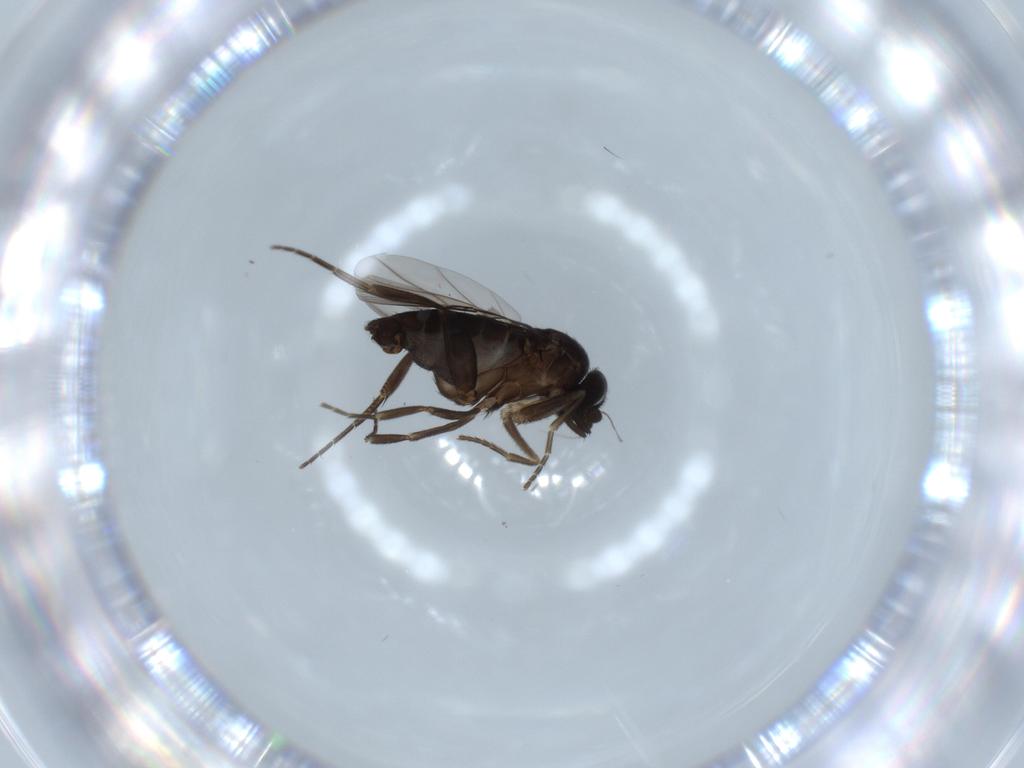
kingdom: Animalia
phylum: Arthropoda
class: Insecta
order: Diptera
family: Phoridae
